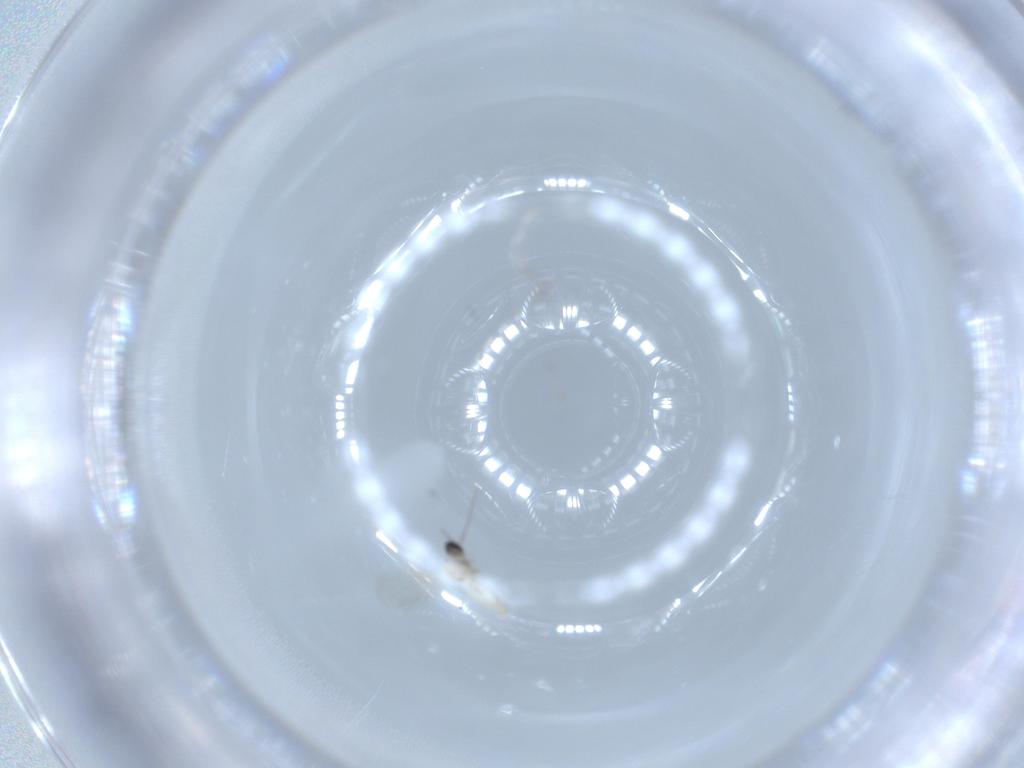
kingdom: Animalia
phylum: Arthropoda
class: Insecta
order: Diptera
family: Cecidomyiidae
